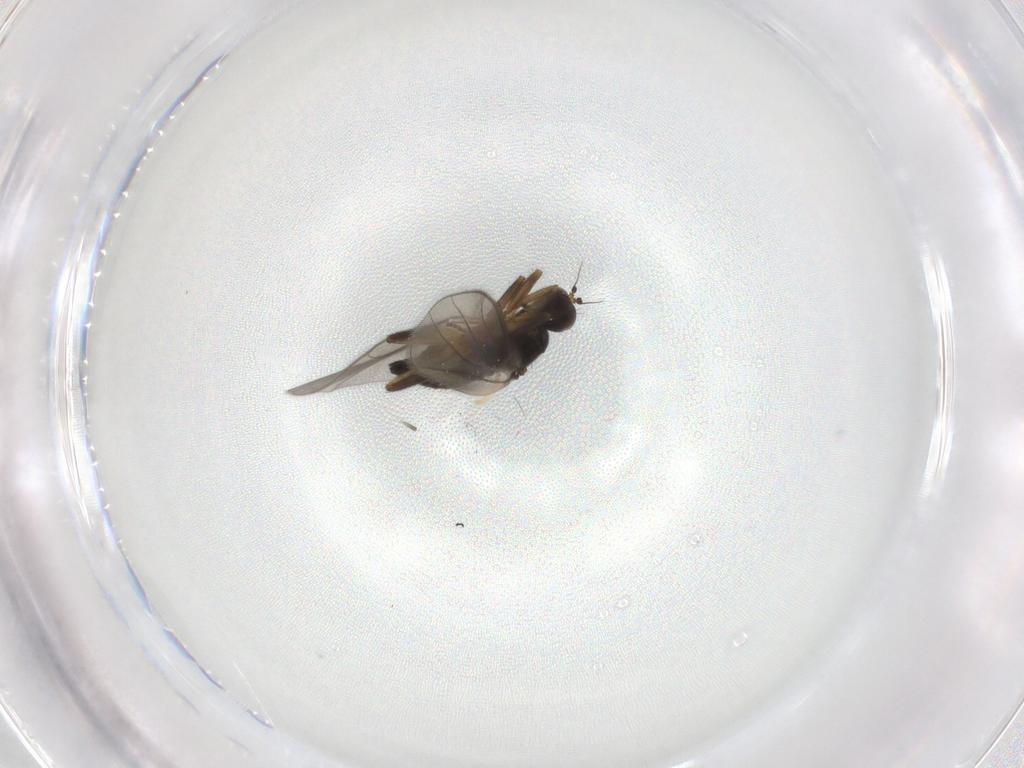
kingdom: Animalia
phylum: Arthropoda
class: Insecta
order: Diptera
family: Hybotidae
